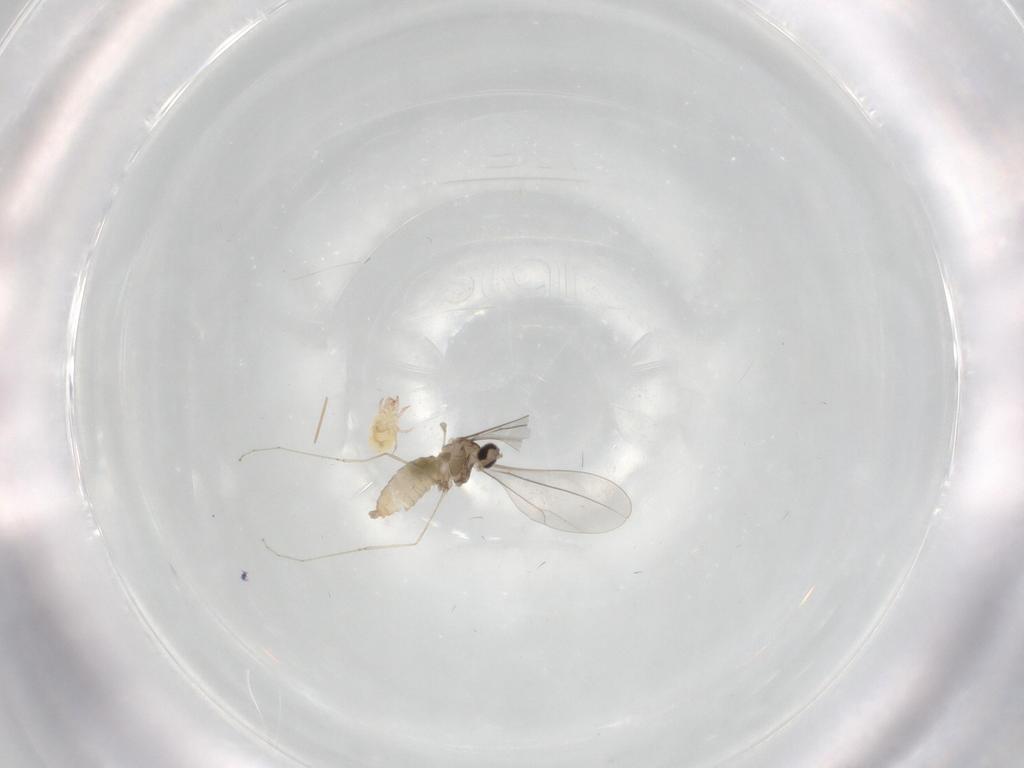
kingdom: Animalia
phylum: Arthropoda
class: Insecta
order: Diptera
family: Cecidomyiidae
